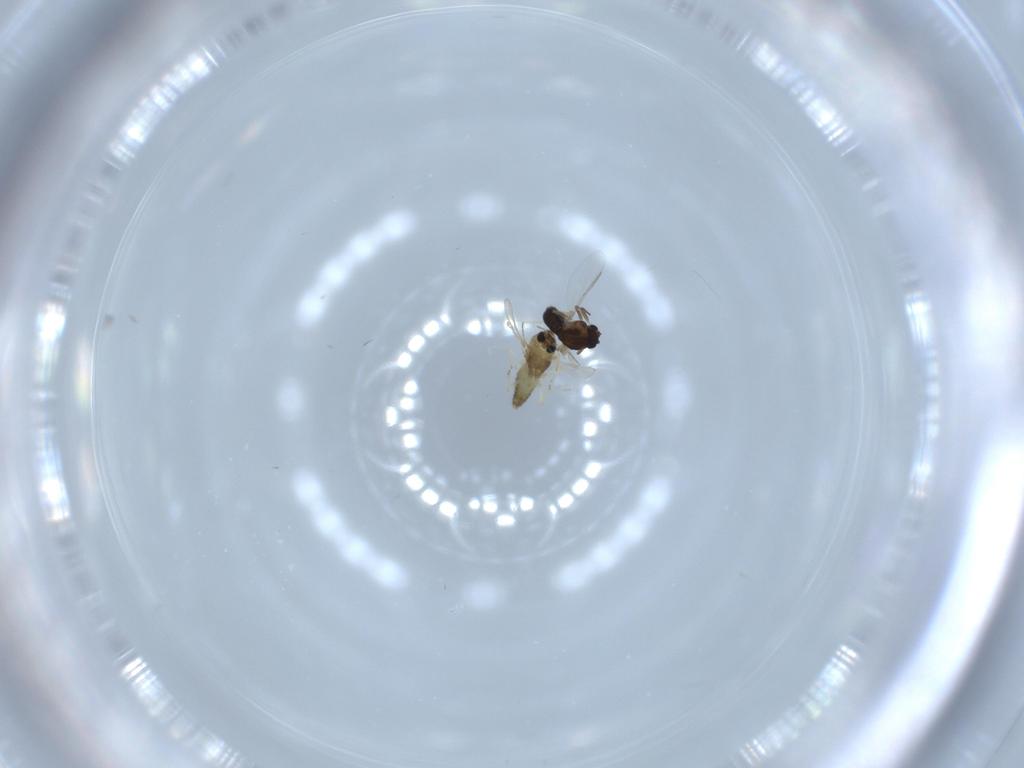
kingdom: Animalia
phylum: Arthropoda
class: Insecta
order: Diptera
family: Chironomidae
